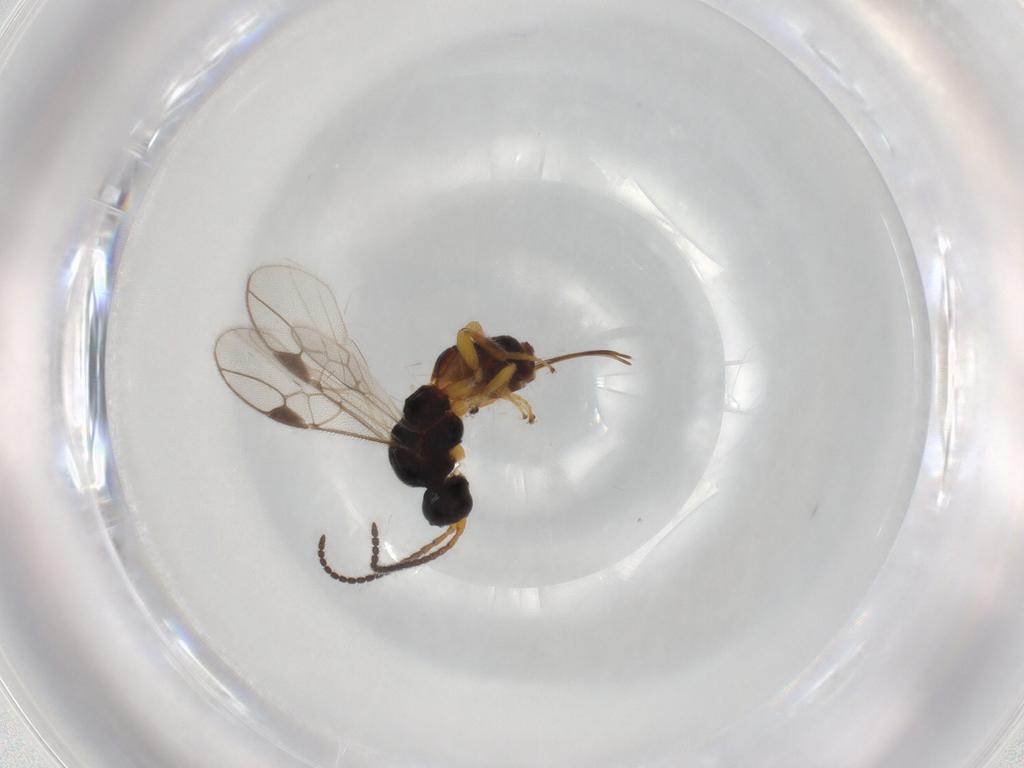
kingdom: Animalia
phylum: Arthropoda
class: Insecta
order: Hymenoptera
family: Braconidae
